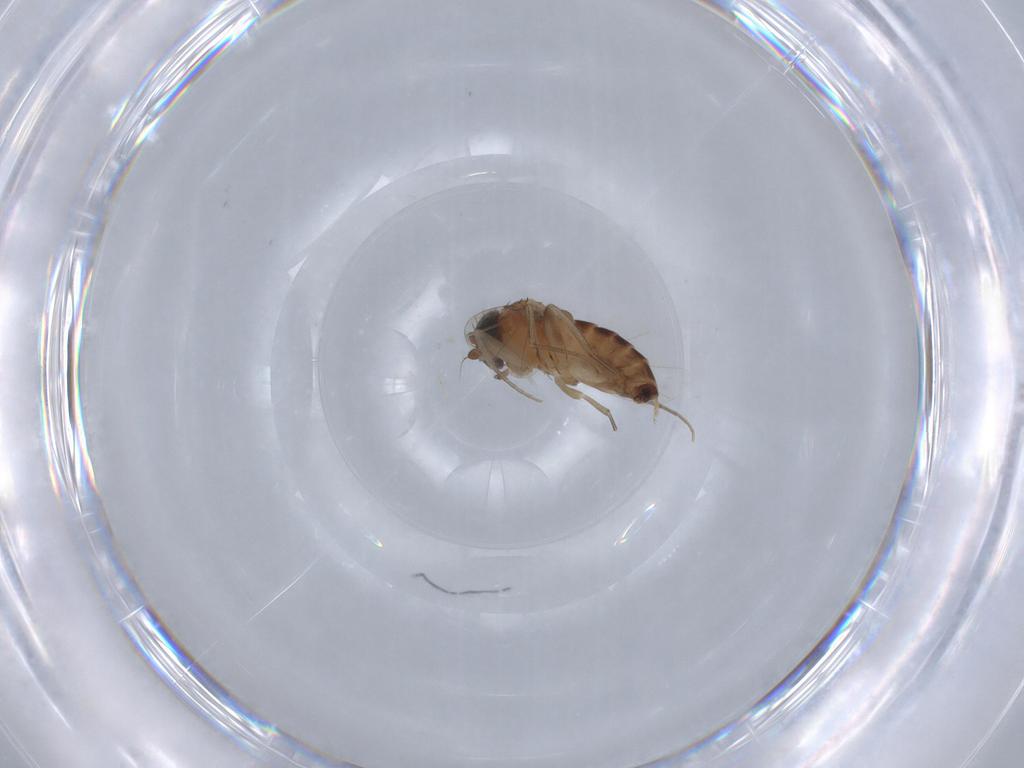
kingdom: Animalia
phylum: Arthropoda
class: Insecta
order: Diptera
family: Phoridae
